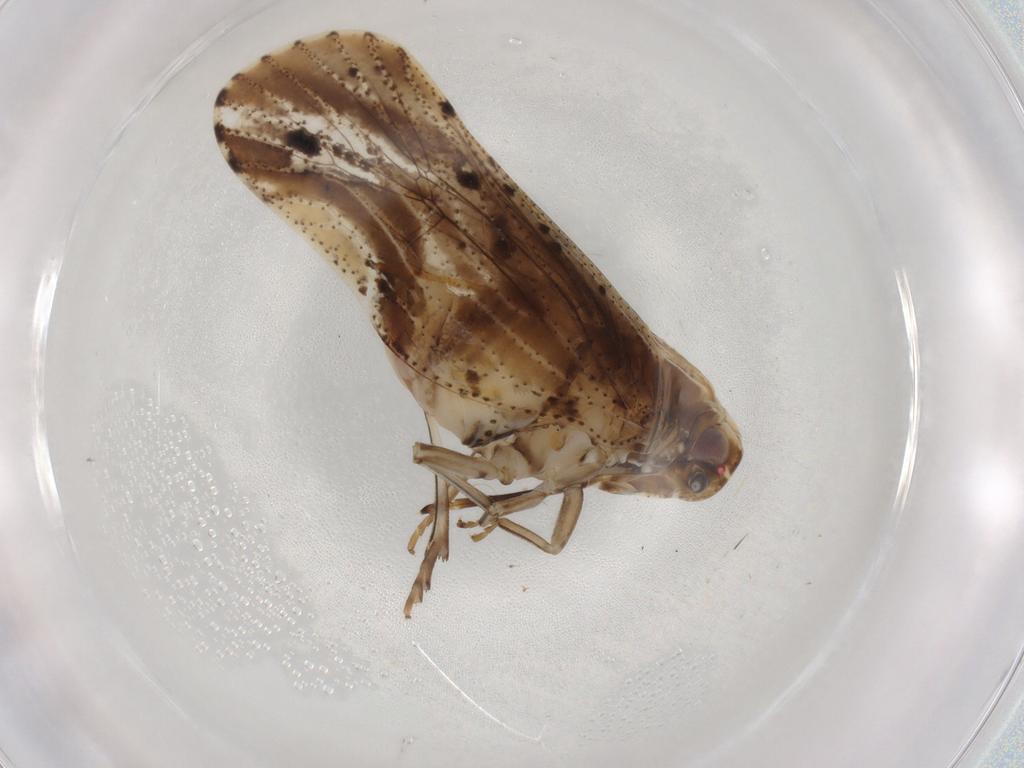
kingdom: Animalia
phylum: Arthropoda
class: Insecta
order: Hemiptera
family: Cixiidae
